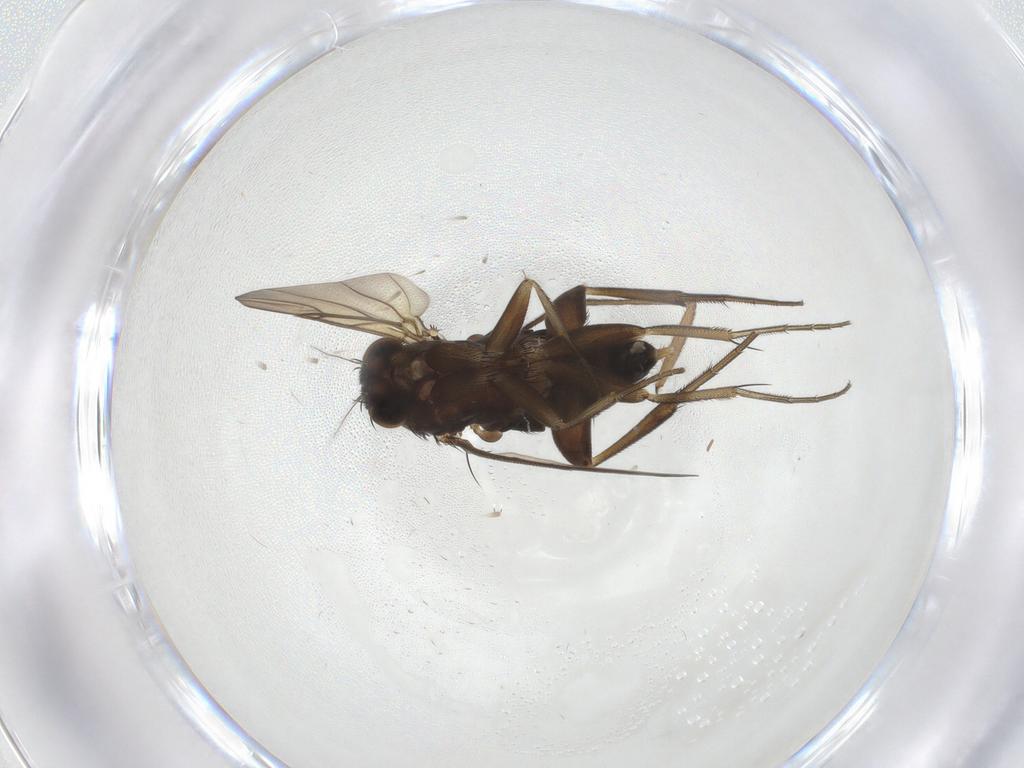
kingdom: Animalia
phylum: Arthropoda
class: Insecta
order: Diptera
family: Phoridae
